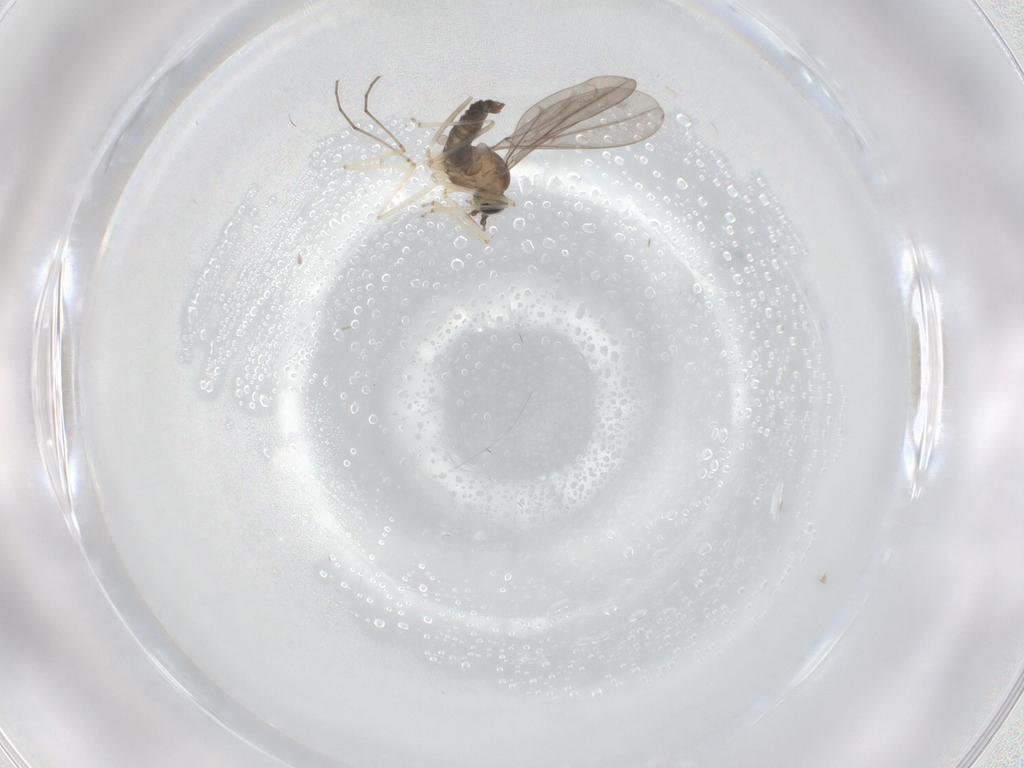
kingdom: Animalia
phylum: Arthropoda
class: Insecta
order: Diptera
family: Cecidomyiidae
